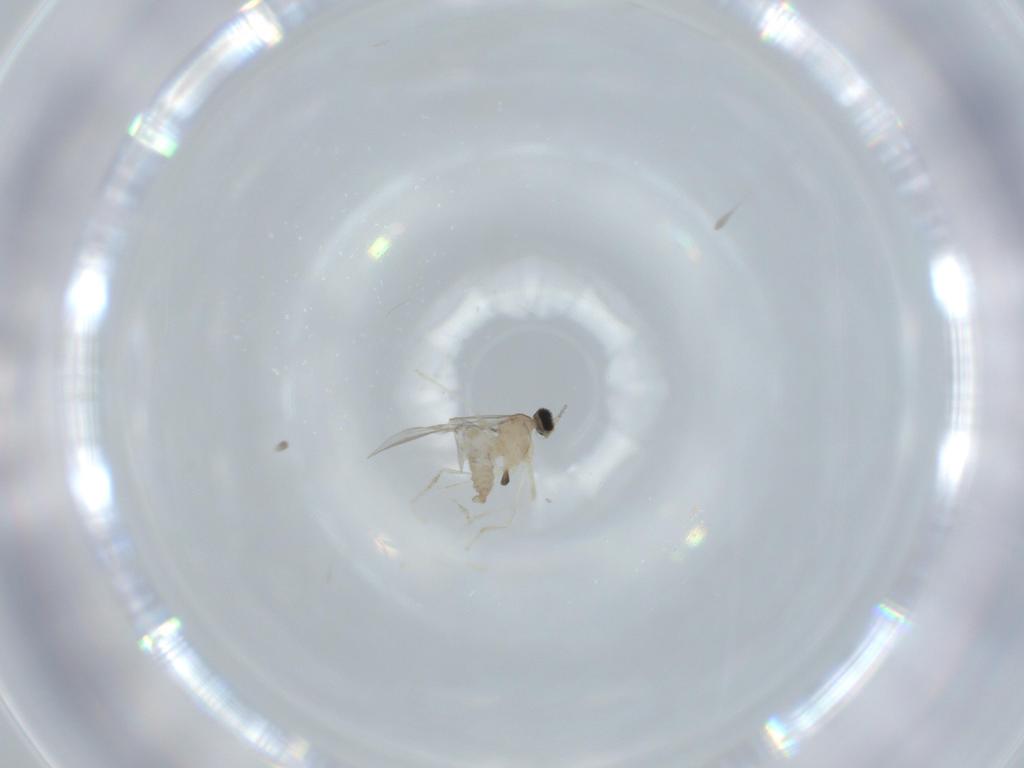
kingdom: Animalia
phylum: Arthropoda
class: Insecta
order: Diptera
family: Cecidomyiidae
